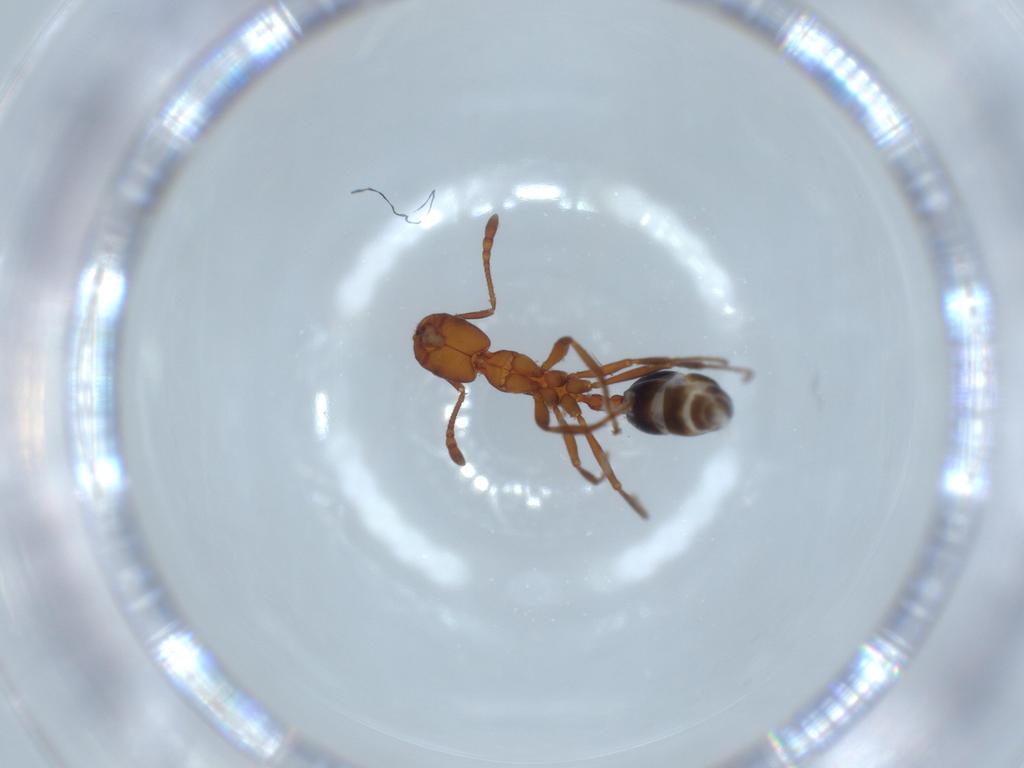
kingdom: Animalia
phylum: Arthropoda
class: Insecta
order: Hymenoptera
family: Formicidae
